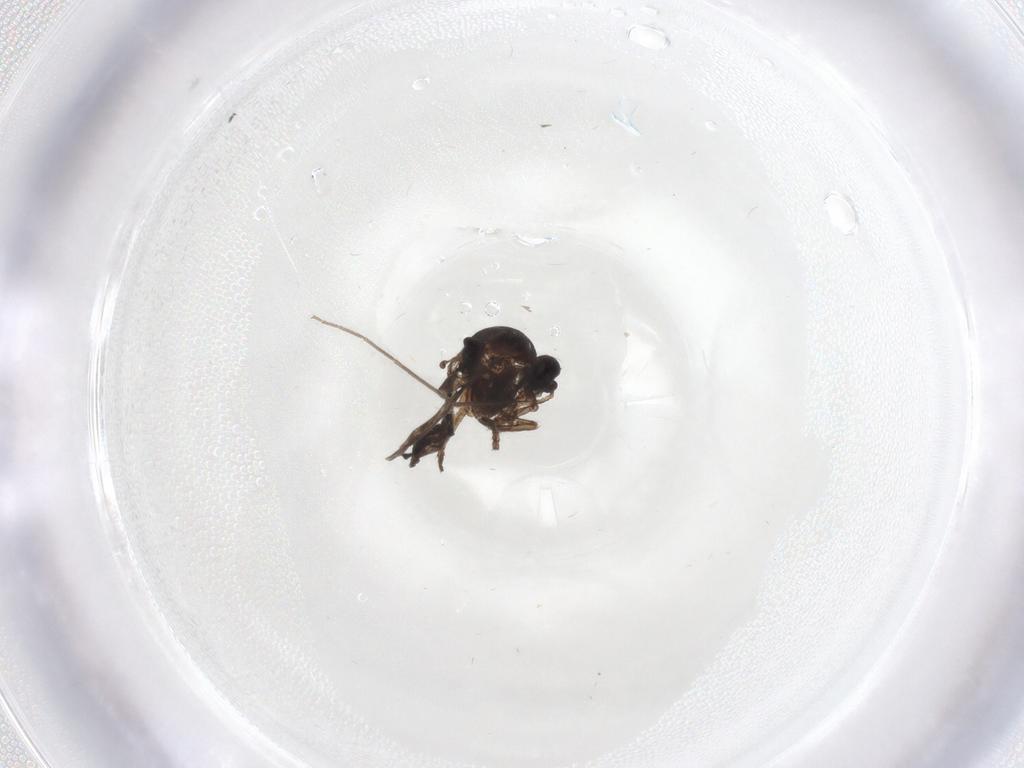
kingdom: Animalia
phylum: Arthropoda
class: Insecta
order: Diptera
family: Ceratopogonidae
